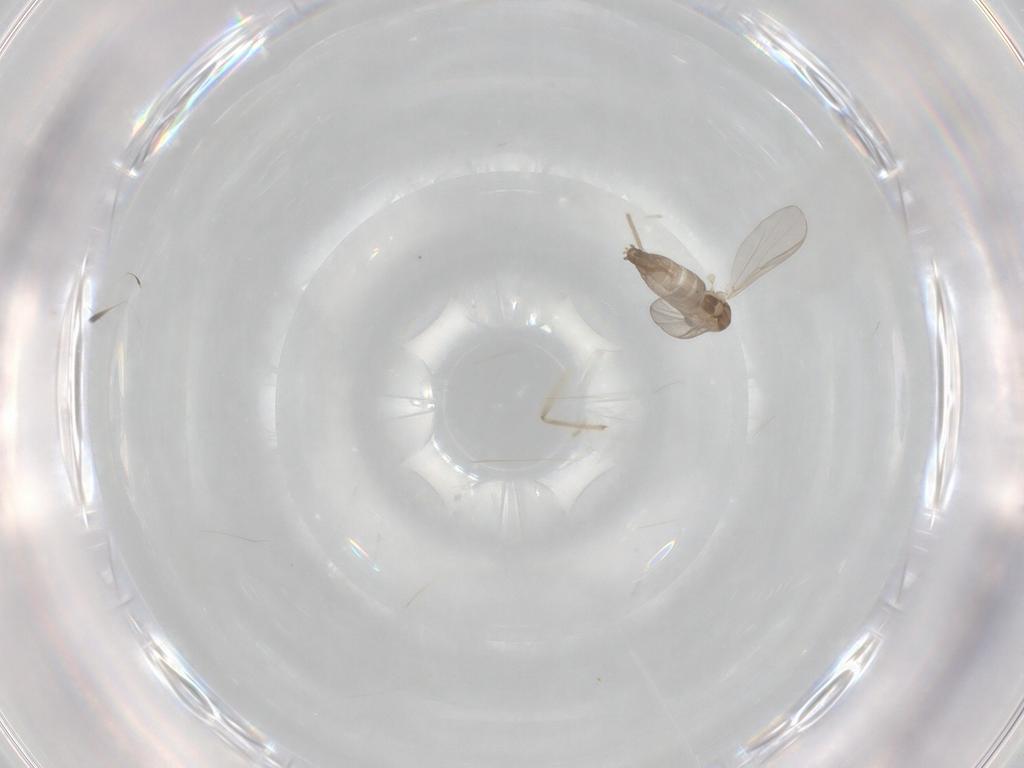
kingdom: Animalia
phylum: Arthropoda
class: Insecta
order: Diptera
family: Chironomidae
